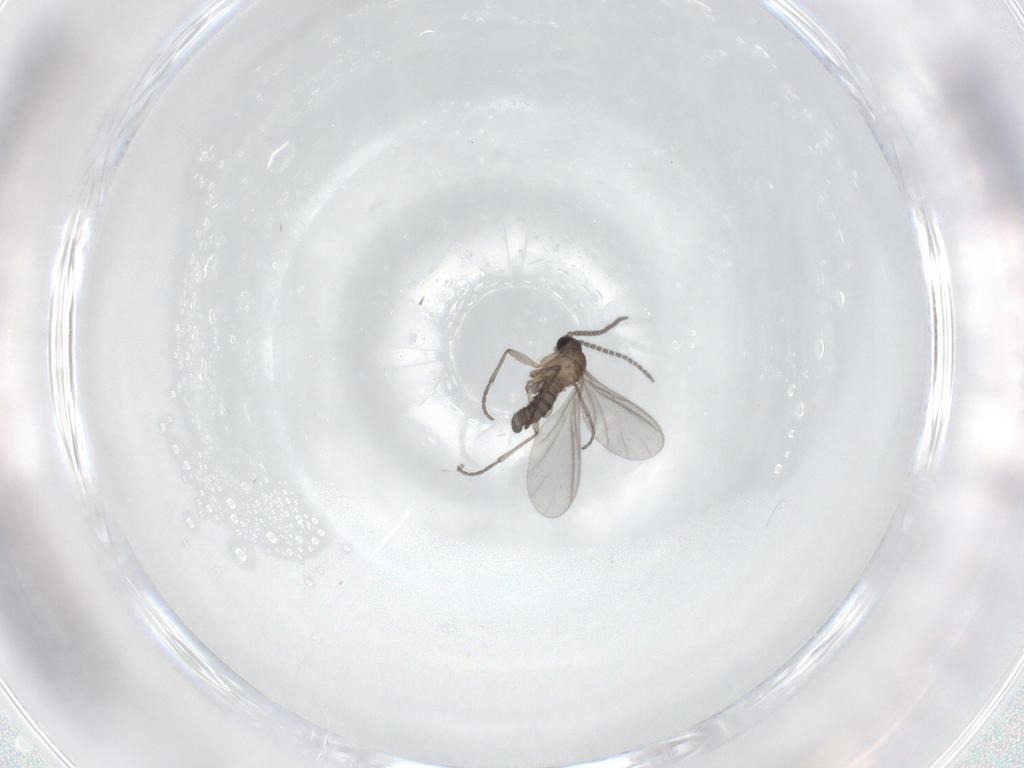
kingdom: Animalia
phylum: Arthropoda
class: Insecta
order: Diptera
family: Sciaridae
